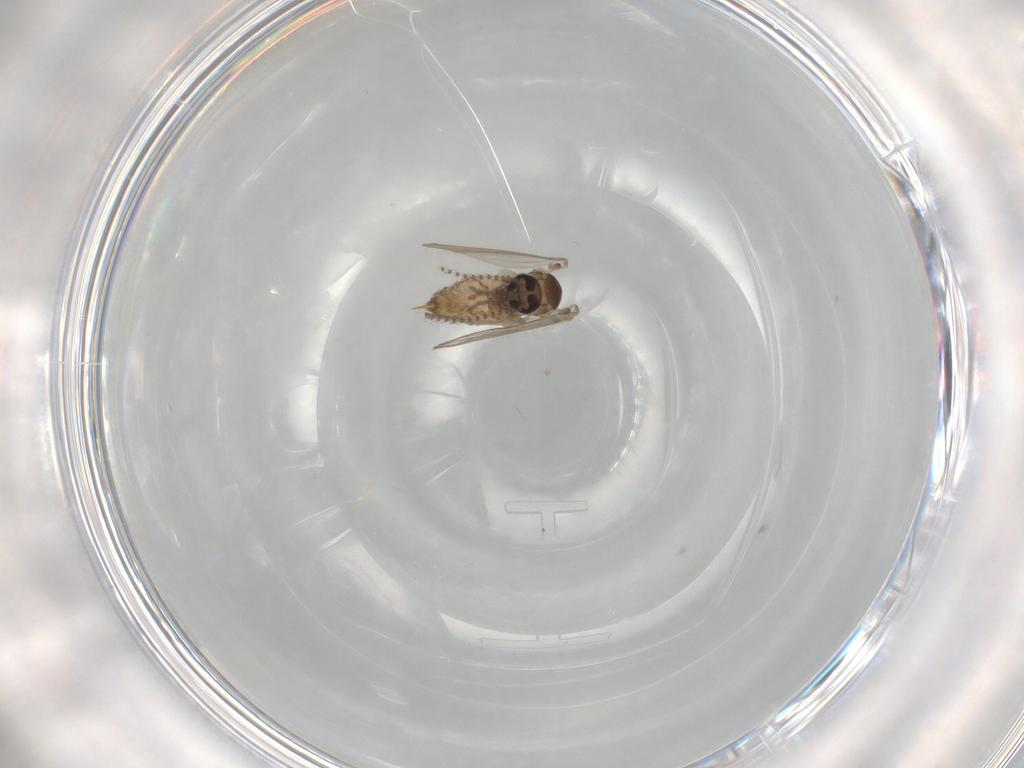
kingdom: Animalia
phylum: Arthropoda
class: Insecta
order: Diptera
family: Psychodidae
